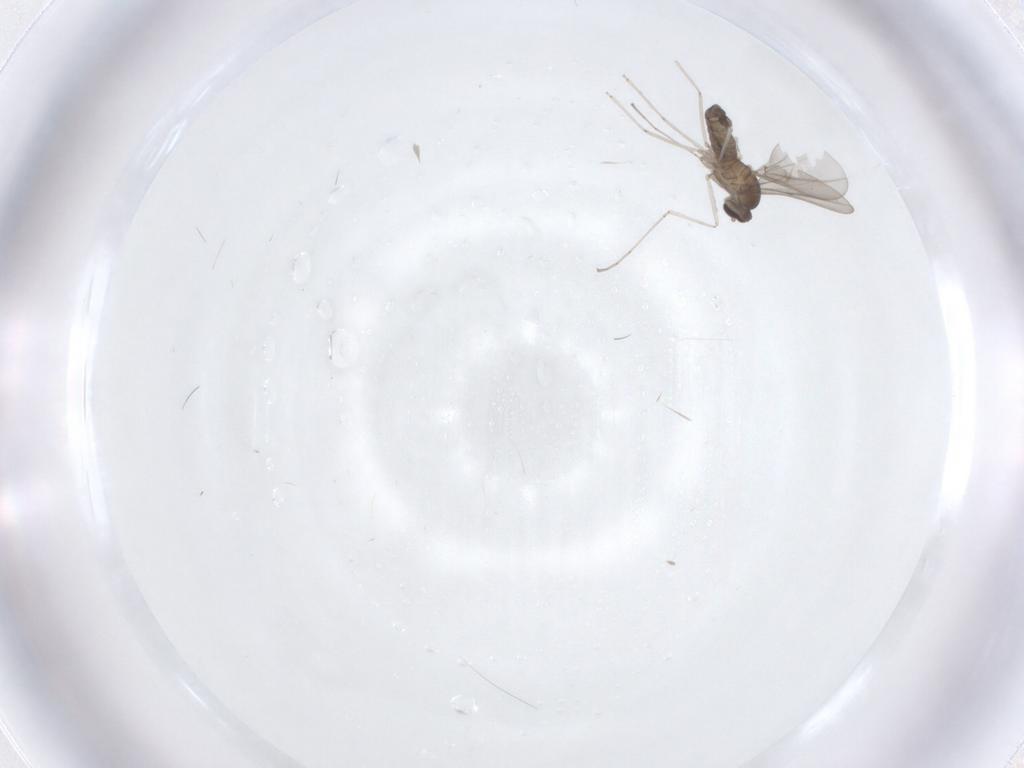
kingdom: Animalia
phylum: Arthropoda
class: Insecta
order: Diptera
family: Cecidomyiidae
